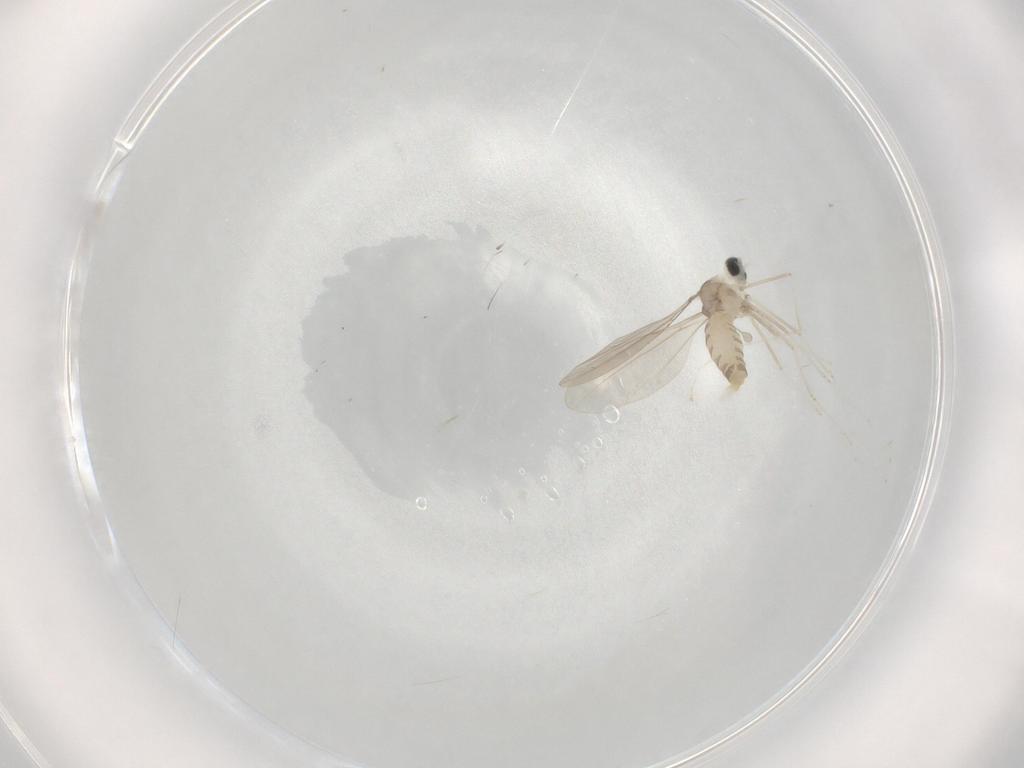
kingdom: Animalia
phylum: Arthropoda
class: Insecta
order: Diptera
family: Cecidomyiidae
